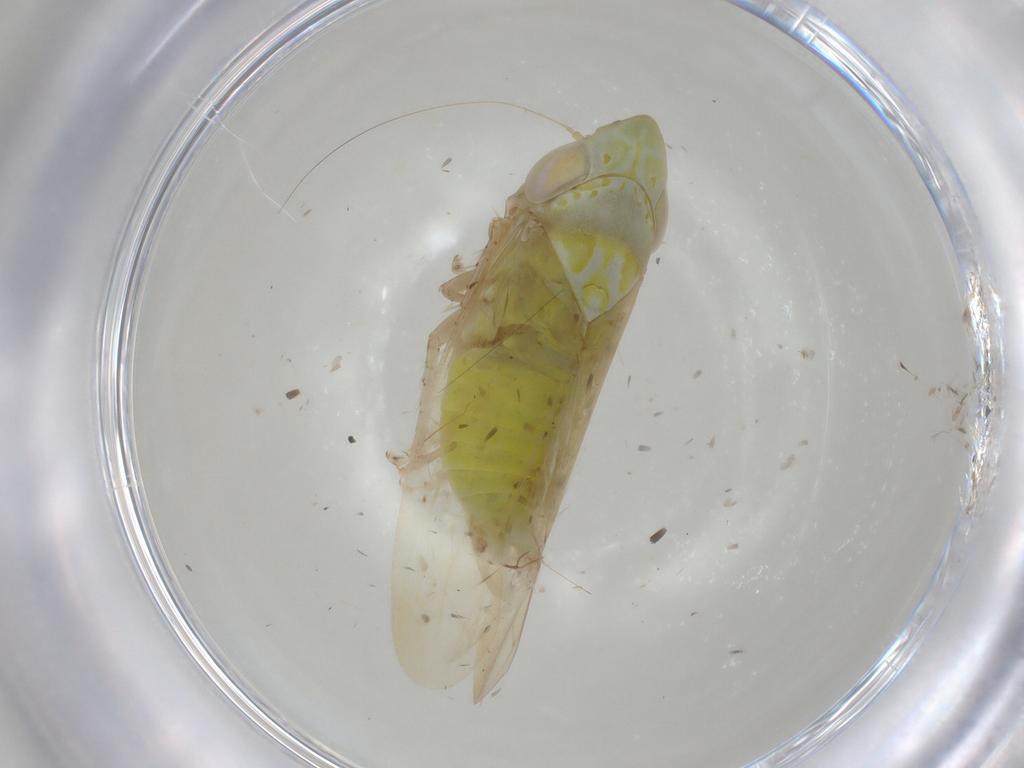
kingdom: Animalia
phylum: Arthropoda
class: Insecta
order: Hemiptera
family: Cicadellidae
